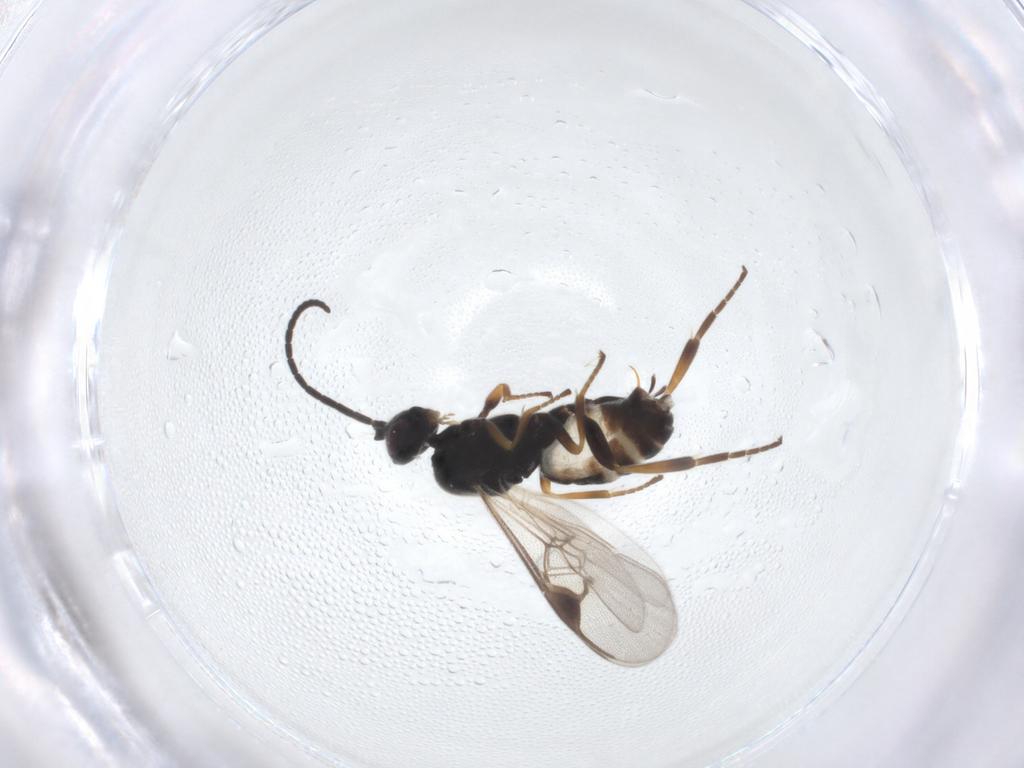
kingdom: Animalia
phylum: Arthropoda
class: Insecta
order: Hymenoptera
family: Braconidae
